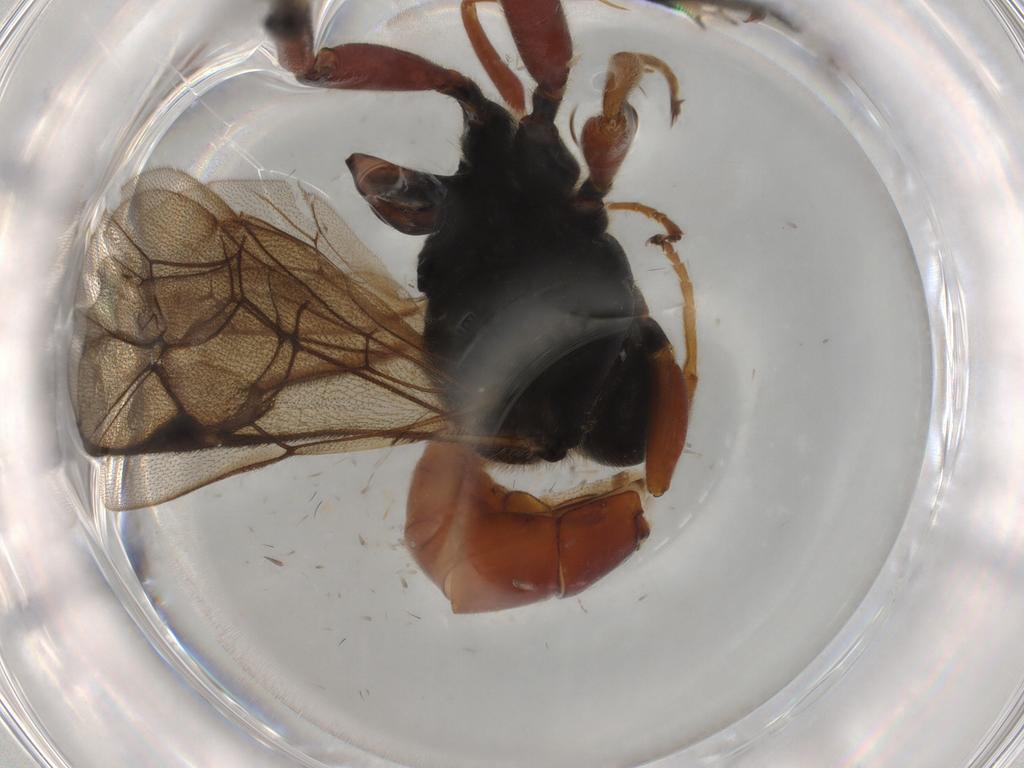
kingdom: Animalia
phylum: Arthropoda
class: Insecta
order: Hymenoptera
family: Ichneumonidae
